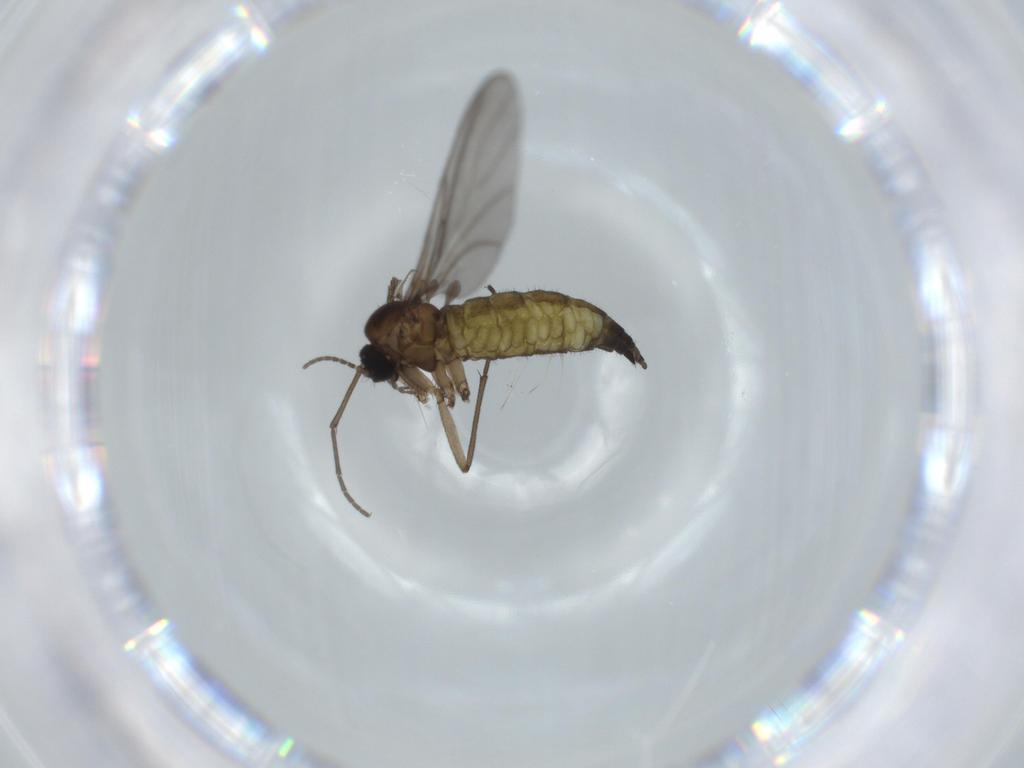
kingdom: Animalia
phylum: Arthropoda
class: Insecta
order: Diptera
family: Sciaridae
